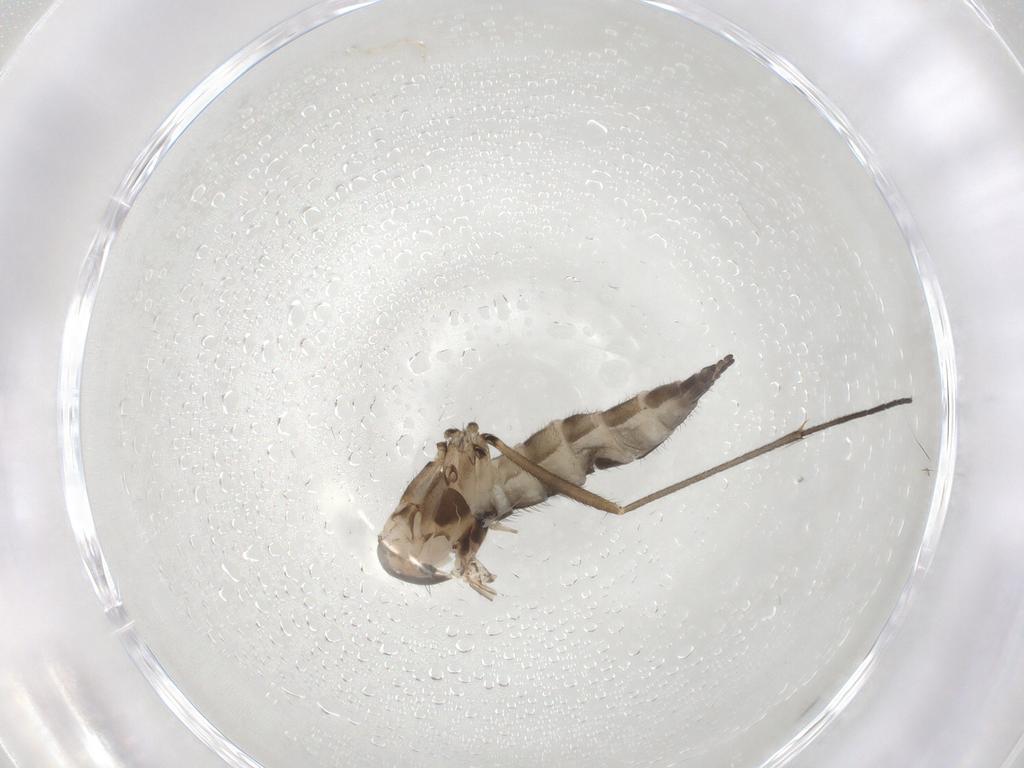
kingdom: Animalia
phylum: Arthropoda
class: Insecta
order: Diptera
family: Sciaridae
